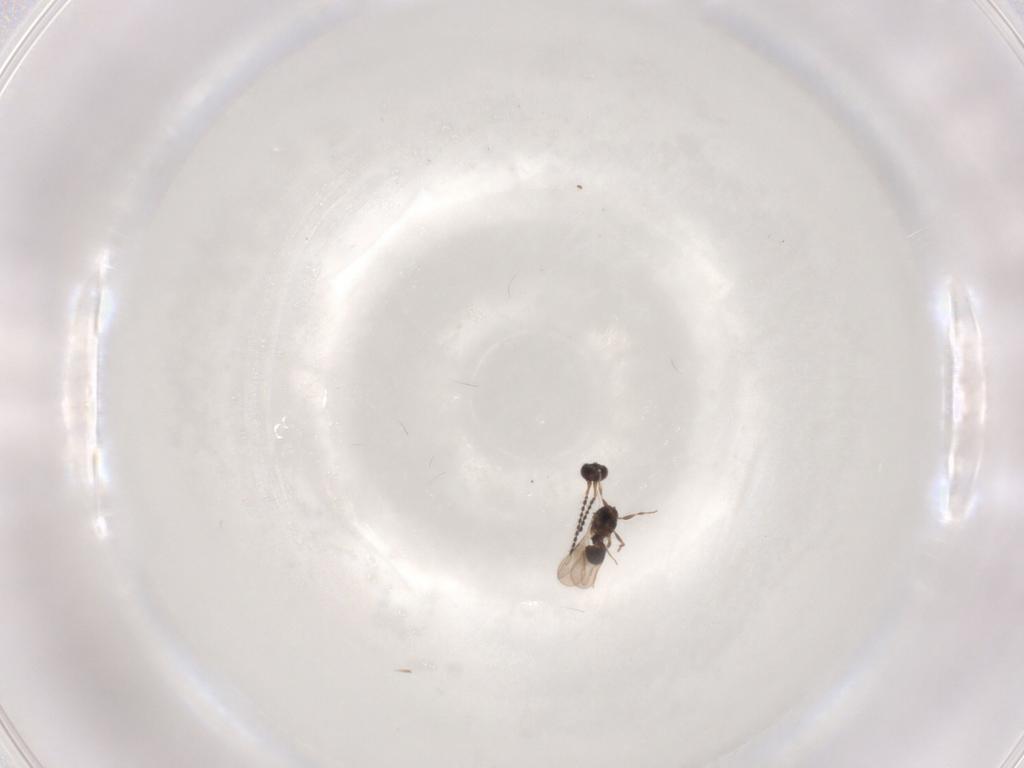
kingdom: Animalia
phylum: Arthropoda
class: Insecta
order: Hymenoptera
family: Ceraphronidae
